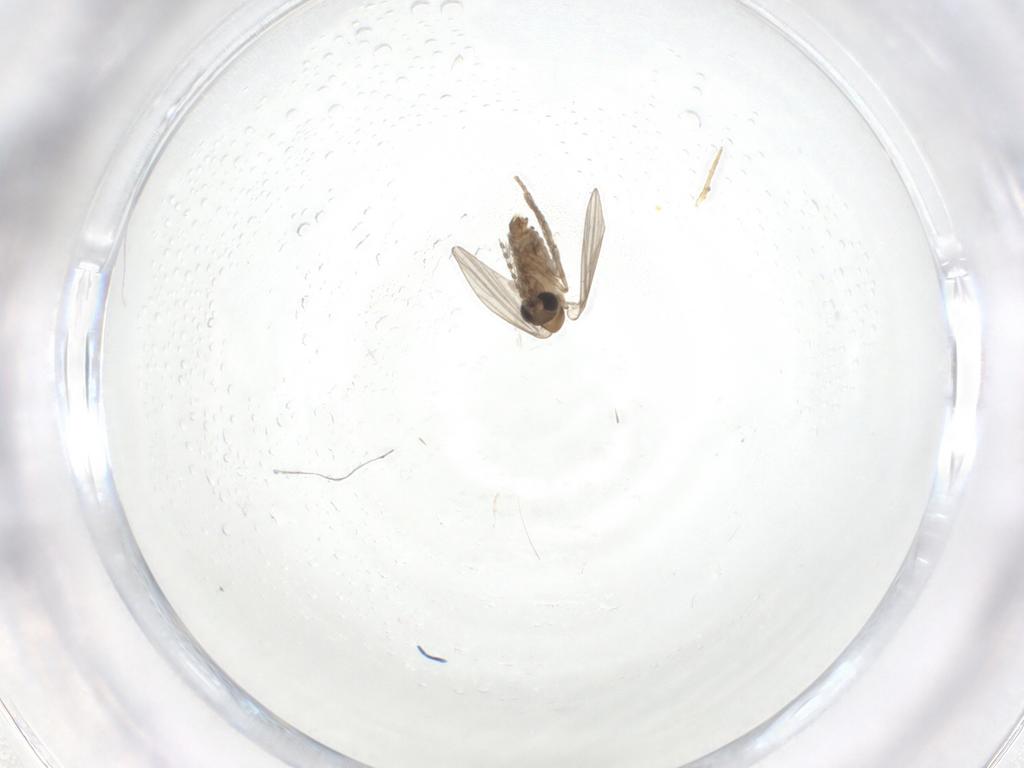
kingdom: Animalia
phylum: Arthropoda
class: Insecta
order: Diptera
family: Psychodidae
